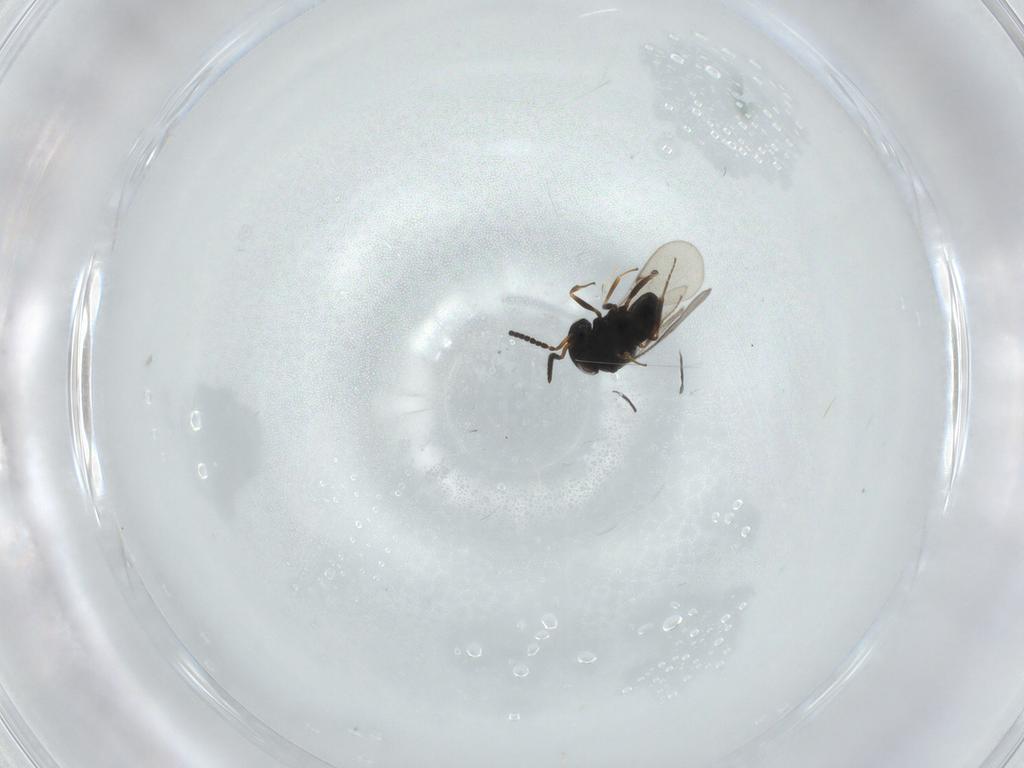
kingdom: Animalia
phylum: Arthropoda
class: Insecta
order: Hymenoptera
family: Scelionidae
